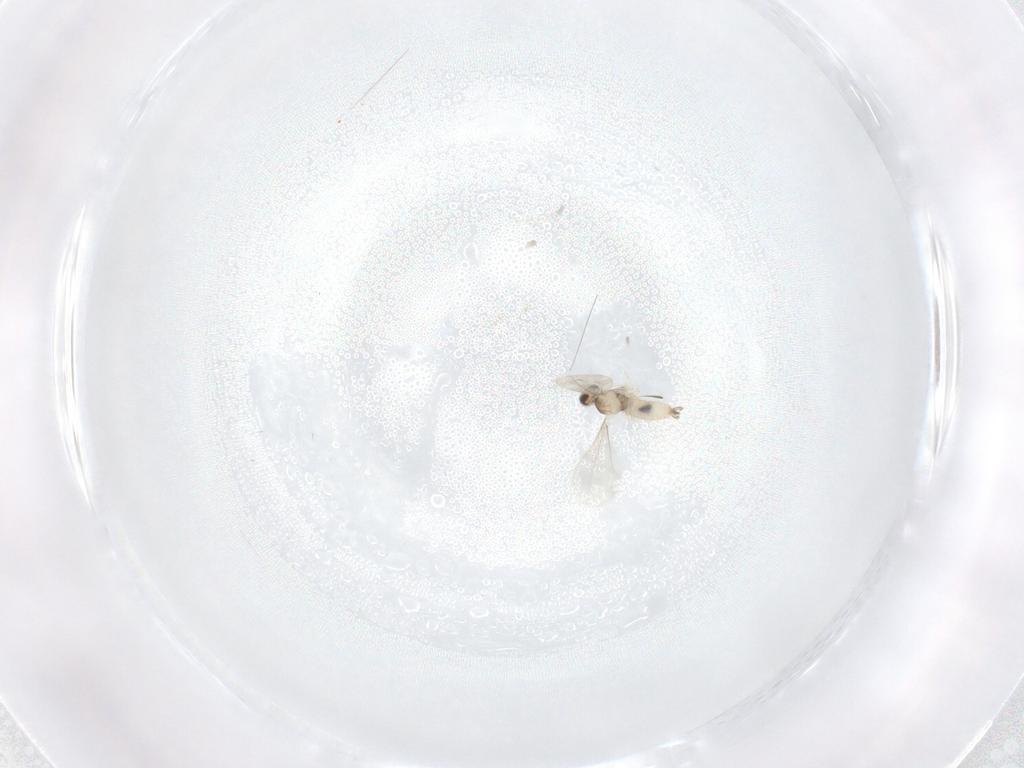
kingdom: Animalia
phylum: Arthropoda
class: Insecta
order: Diptera
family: Cecidomyiidae
